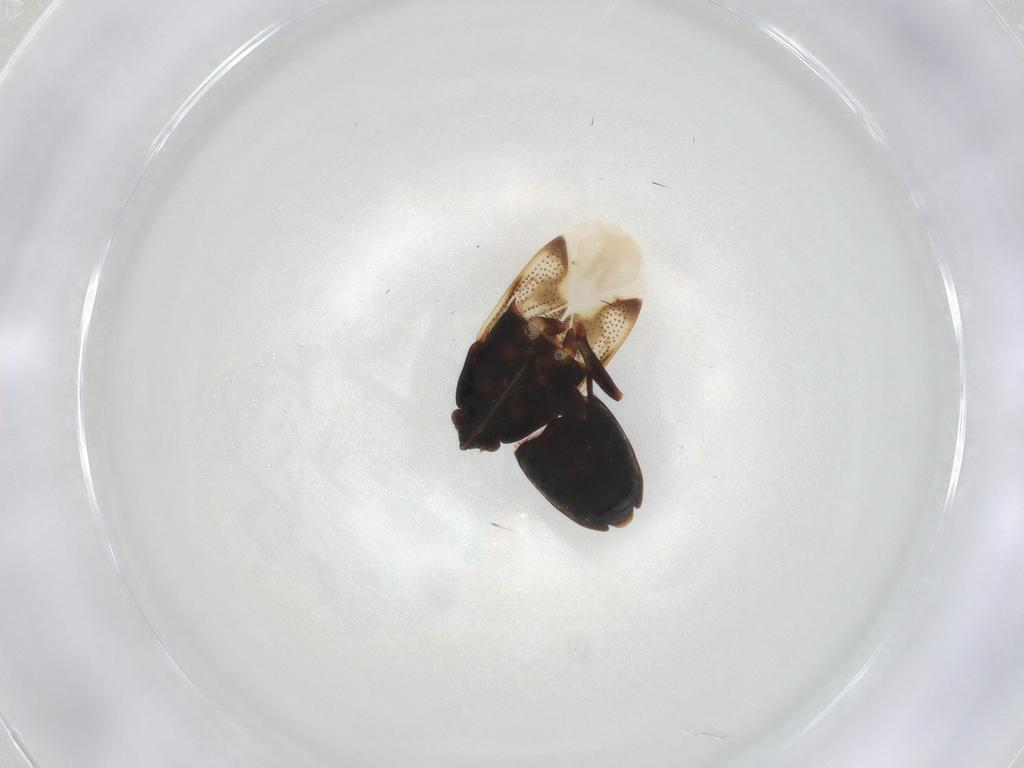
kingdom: Animalia
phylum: Arthropoda
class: Insecta
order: Hemiptera
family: Rhyparochromidae
